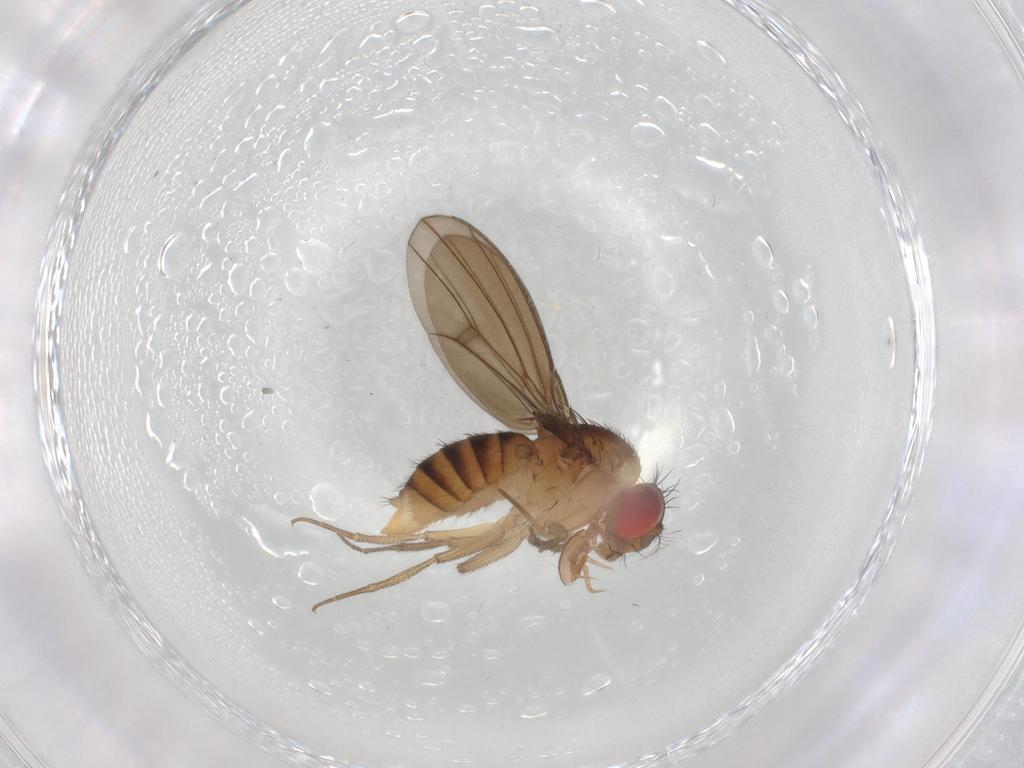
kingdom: Animalia
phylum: Arthropoda
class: Insecta
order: Diptera
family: Drosophilidae
